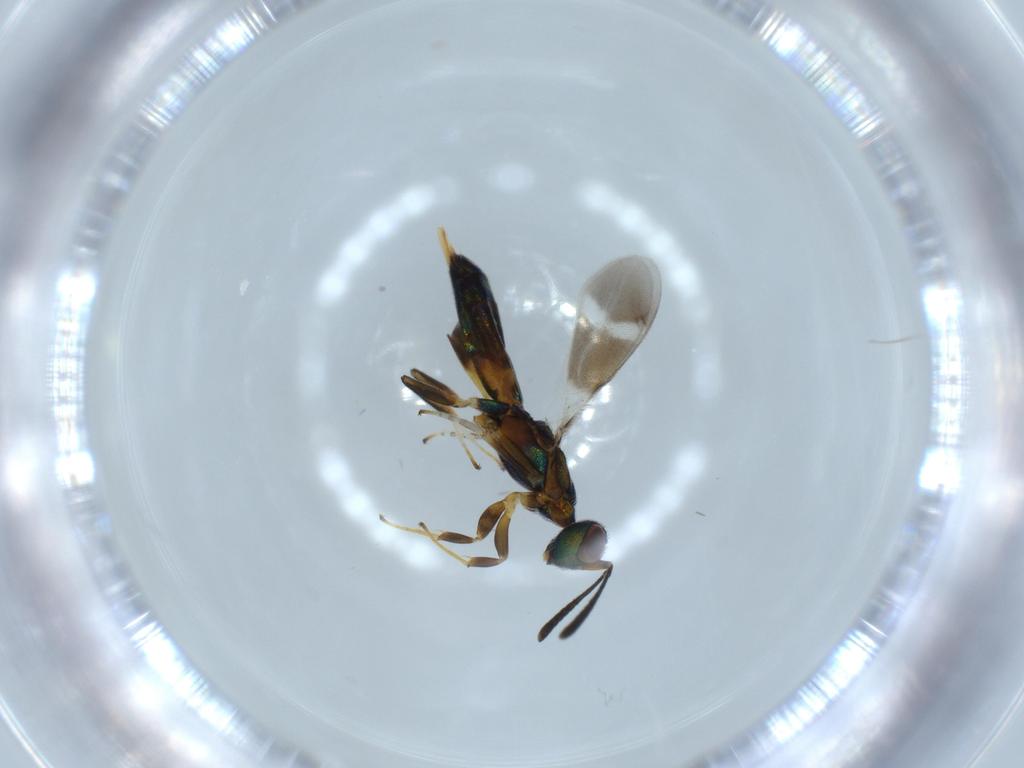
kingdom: Animalia
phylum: Arthropoda
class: Insecta
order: Hymenoptera
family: Eupelmidae
